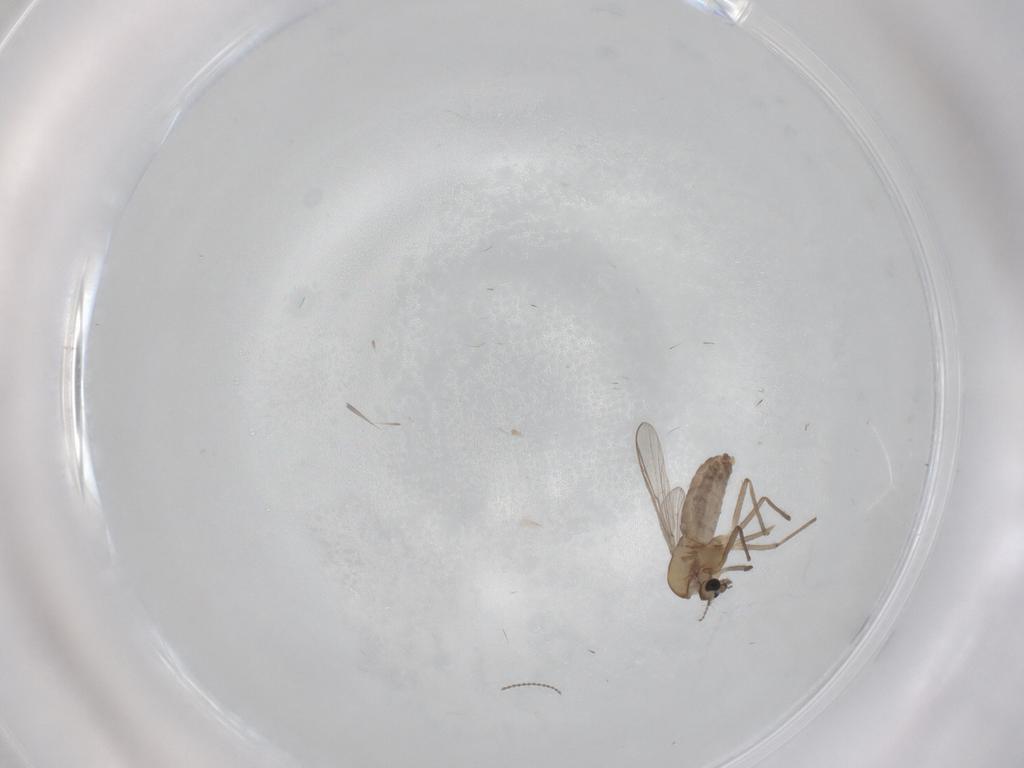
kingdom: Animalia
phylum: Arthropoda
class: Insecta
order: Diptera
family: Chironomidae
